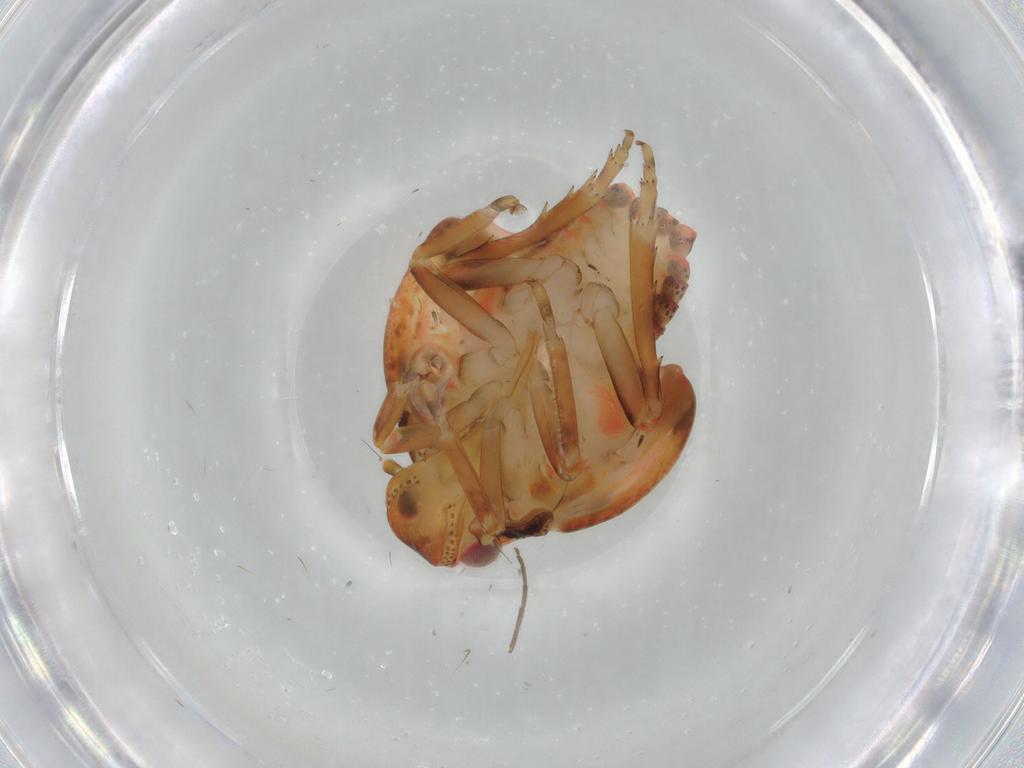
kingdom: Animalia
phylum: Arthropoda
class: Insecta
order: Hemiptera
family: Flatidae
